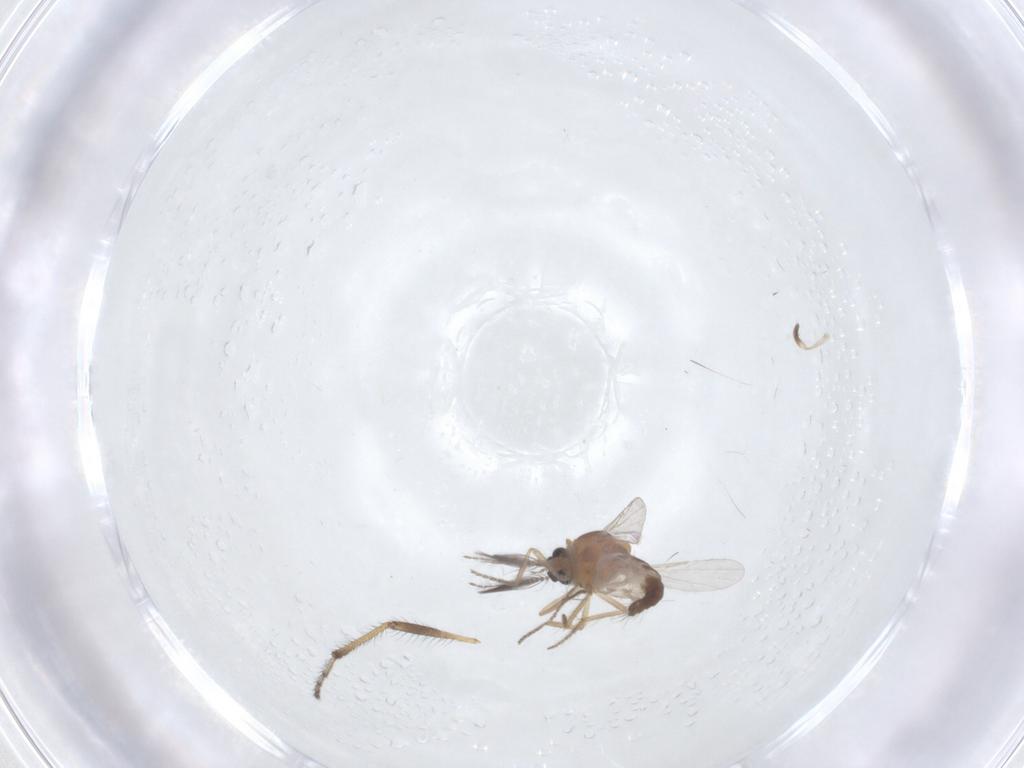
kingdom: Animalia
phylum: Arthropoda
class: Insecta
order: Diptera
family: Ceratopogonidae
